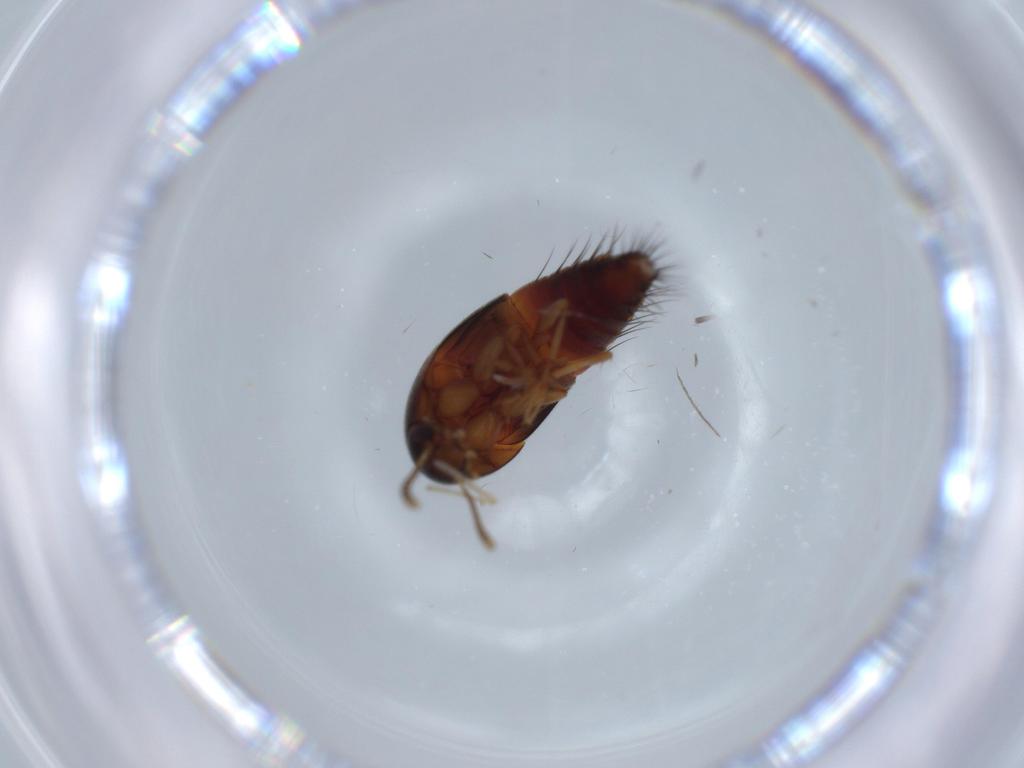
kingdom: Animalia
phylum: Arthropoda
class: Insecta
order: Coleoptera
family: Staphylinidae
